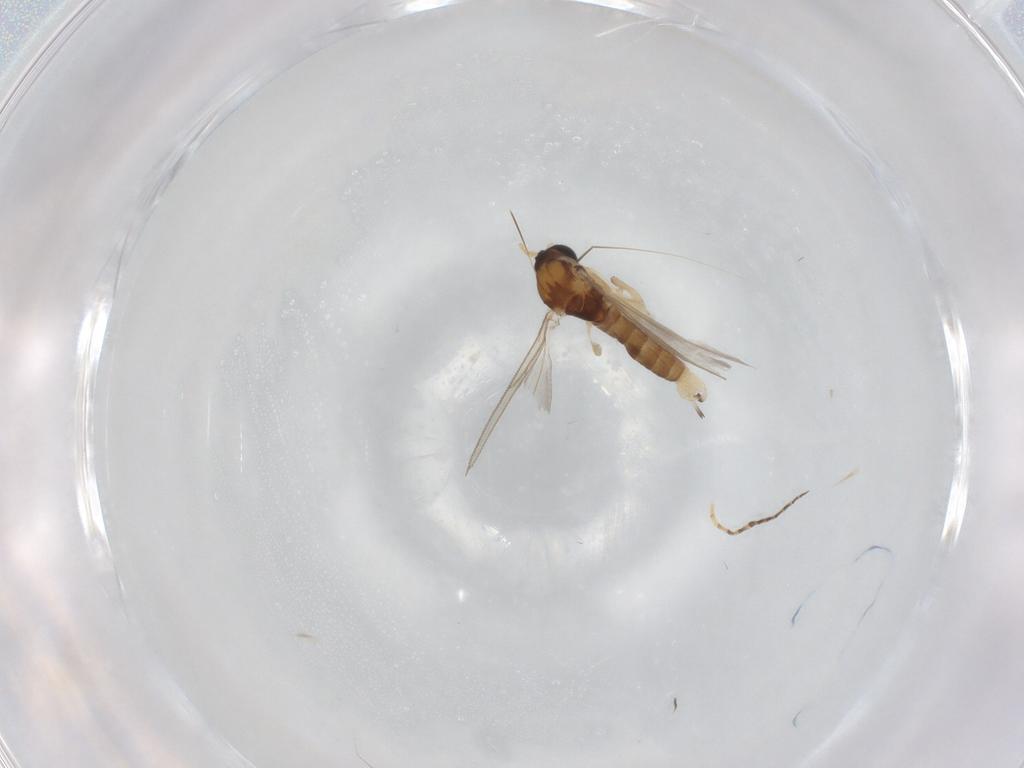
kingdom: Animalia
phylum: Arthropoda
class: Insecta
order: Diptera
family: Sciaridae
